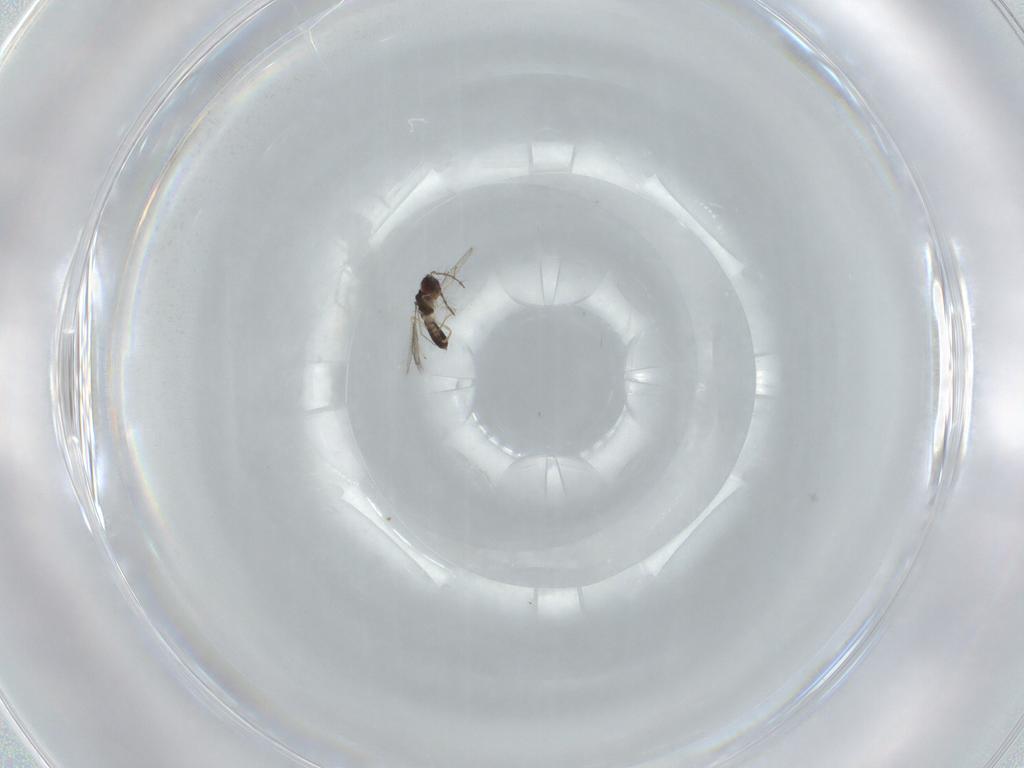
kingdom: Animalia
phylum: Arthropoda
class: Insecta
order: Hymenoptera
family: Pteromalidae
